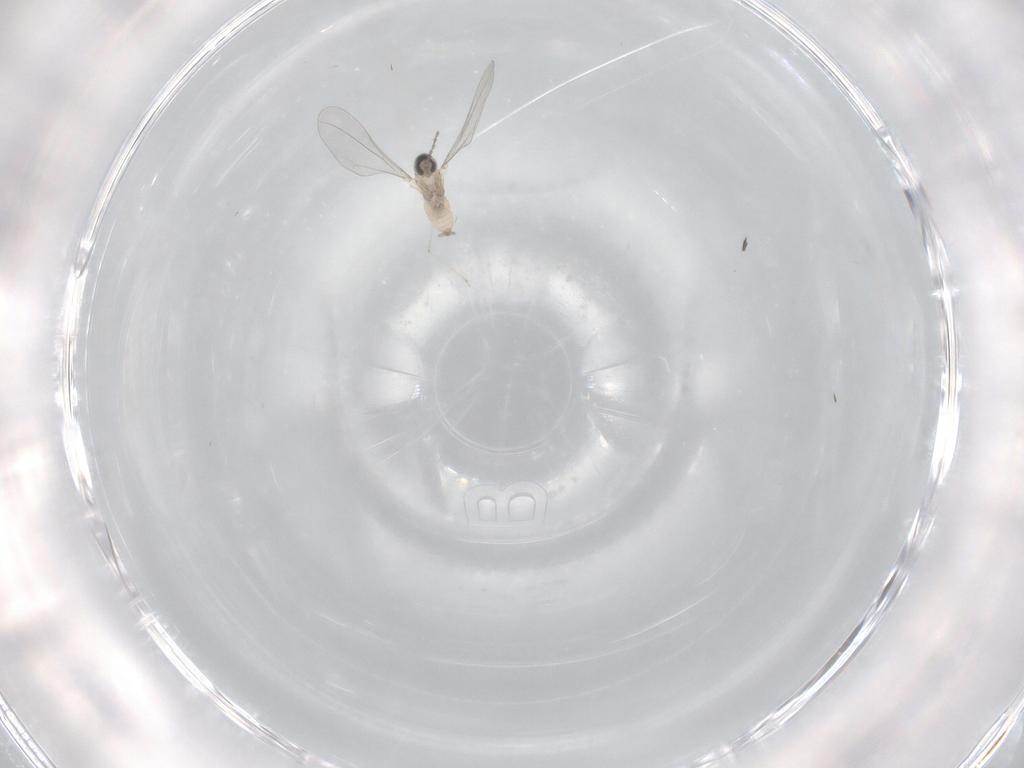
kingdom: Animalia
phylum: Arthropoda
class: Insecta
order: Diptera
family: Cecidomyiidae
